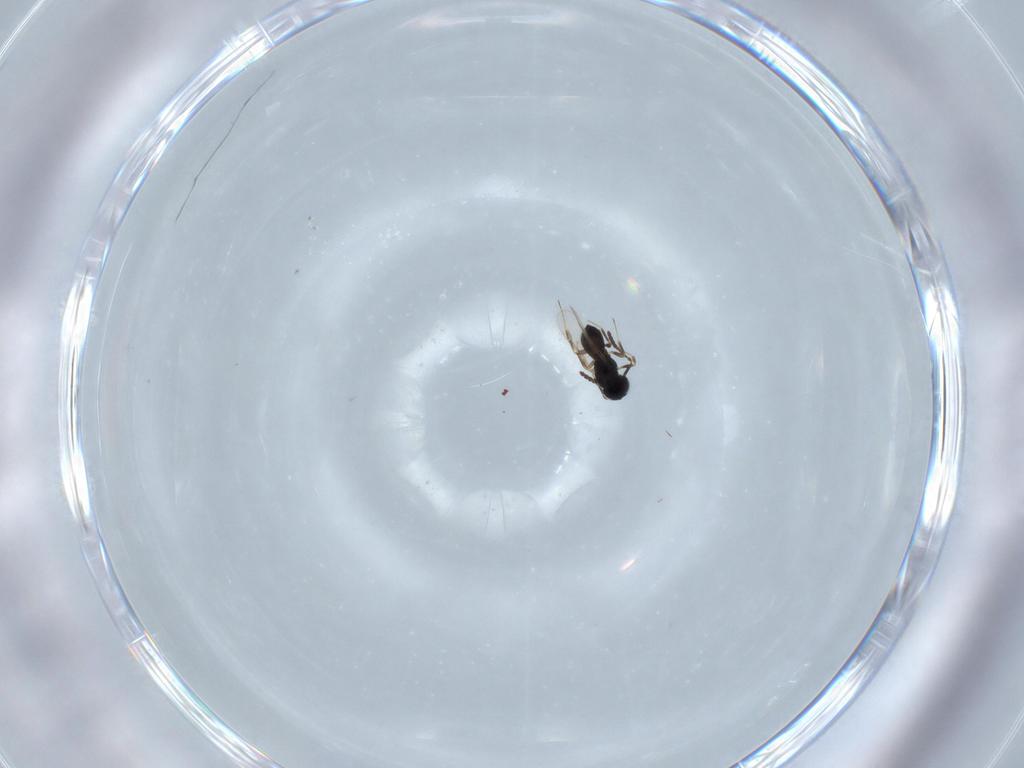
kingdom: Animalia
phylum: Arthropoda
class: Insecta
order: Hymenoptera
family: Scelionidae
